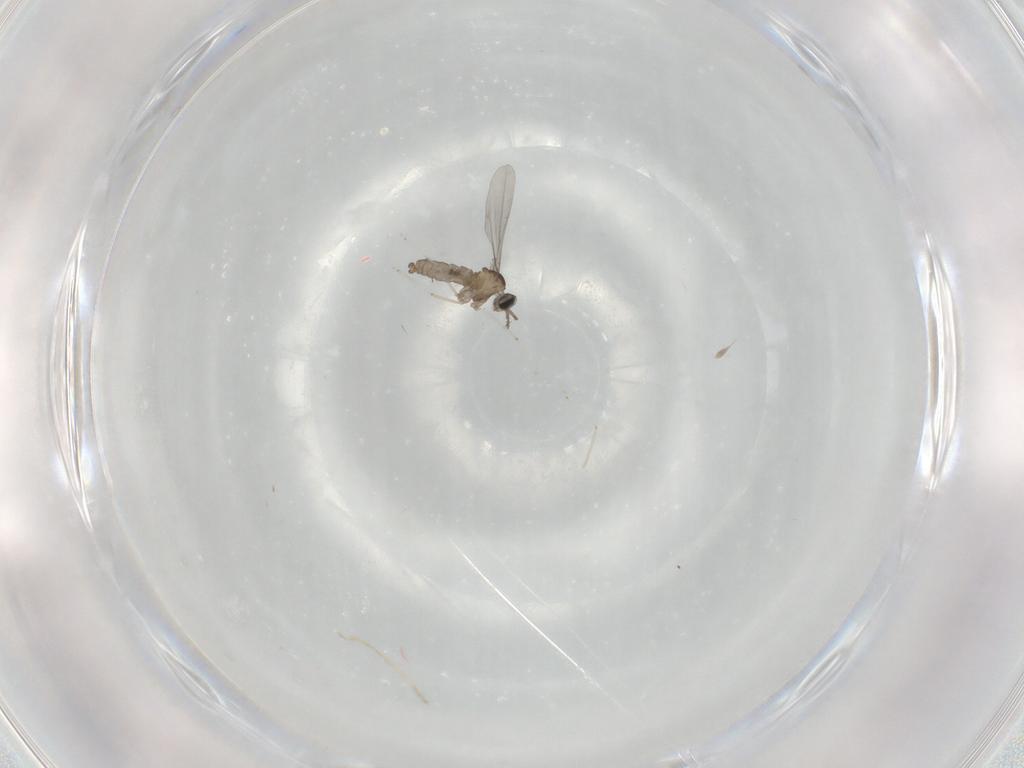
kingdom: Animalia
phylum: Arthropoda
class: Insecta
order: Diptera
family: Cecidomyiidae
